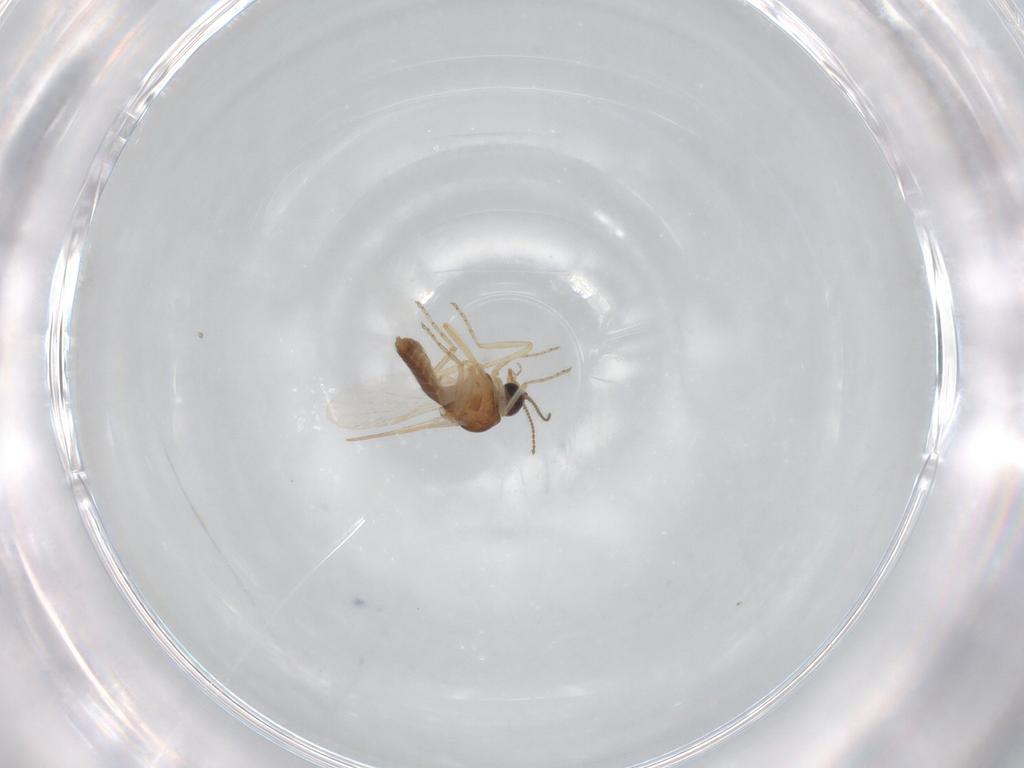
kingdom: Animalia
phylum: Arthropoda
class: Insecta
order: Diptera
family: Ceratopogonidae
